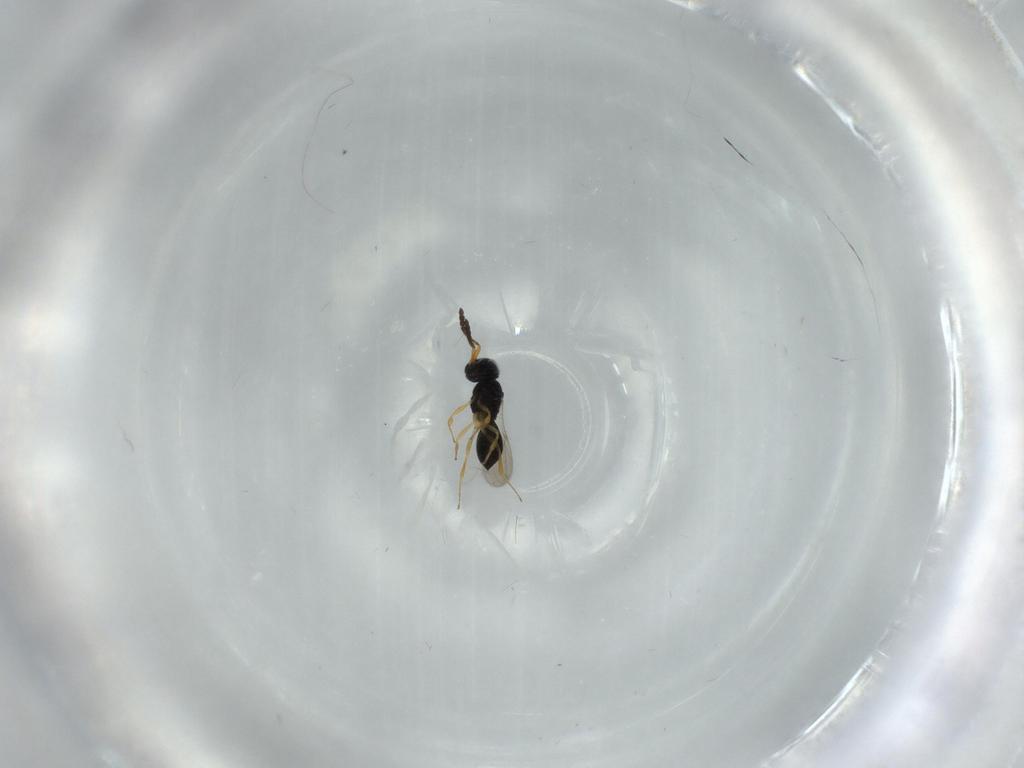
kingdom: Animalia
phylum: Arthropoda
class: Insecta
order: Hymenoptera
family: Scelionidae
